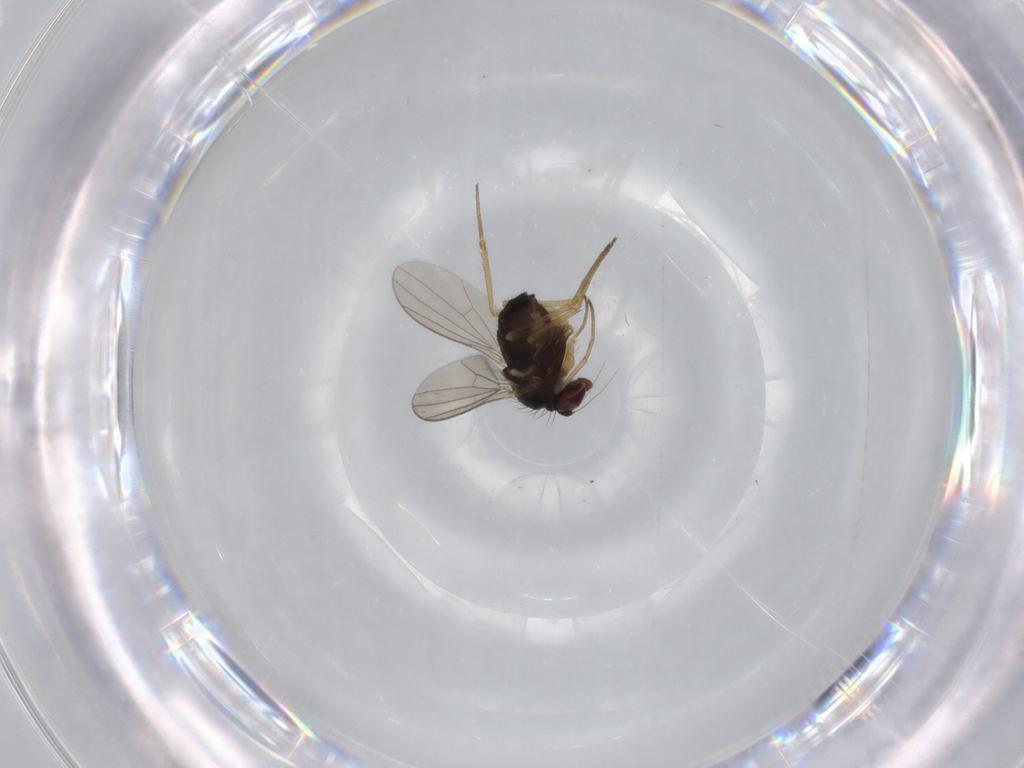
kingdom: Animalia
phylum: Arthropoda
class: Insecta
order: Diptera
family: Dolichopodidae
